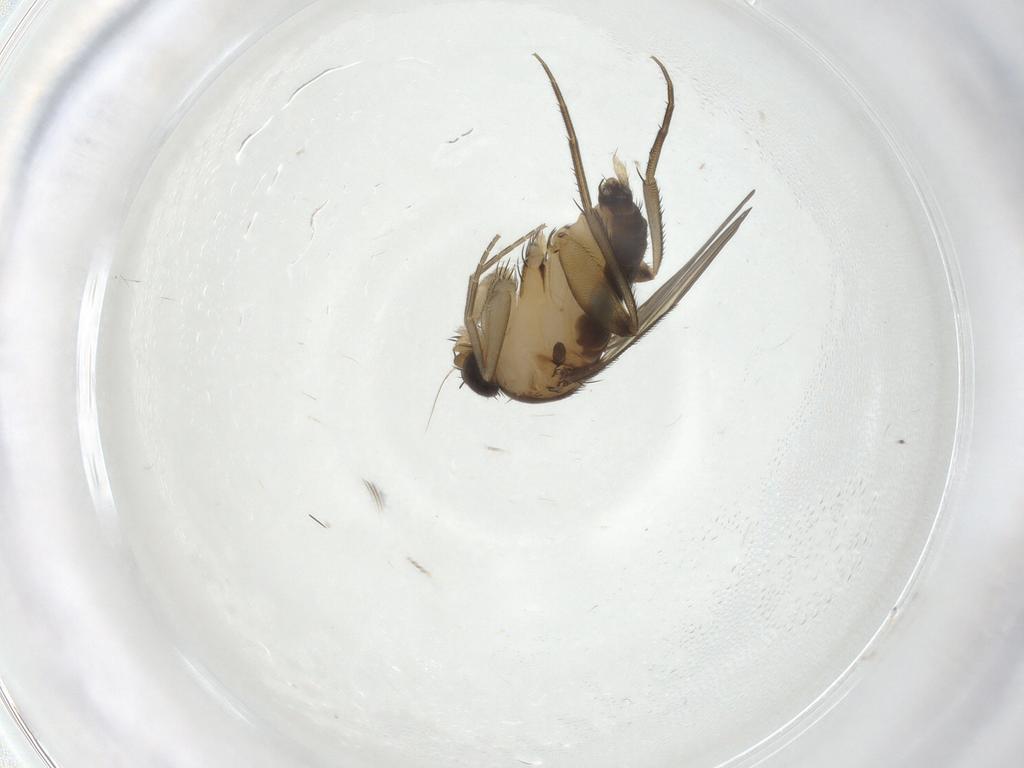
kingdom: Animalia
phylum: Arthropoda
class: Insecta
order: Diptera
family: Phoridae
